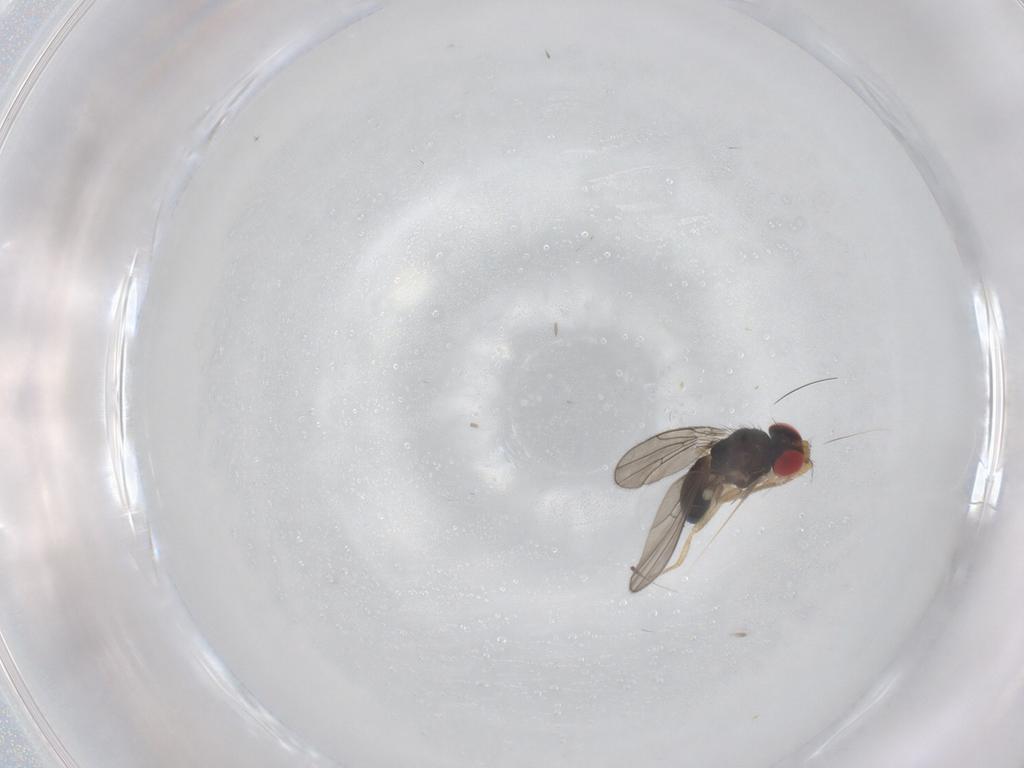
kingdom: Animalia
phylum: Arthropoda
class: Insecta
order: Diptera
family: Drosophilidae
